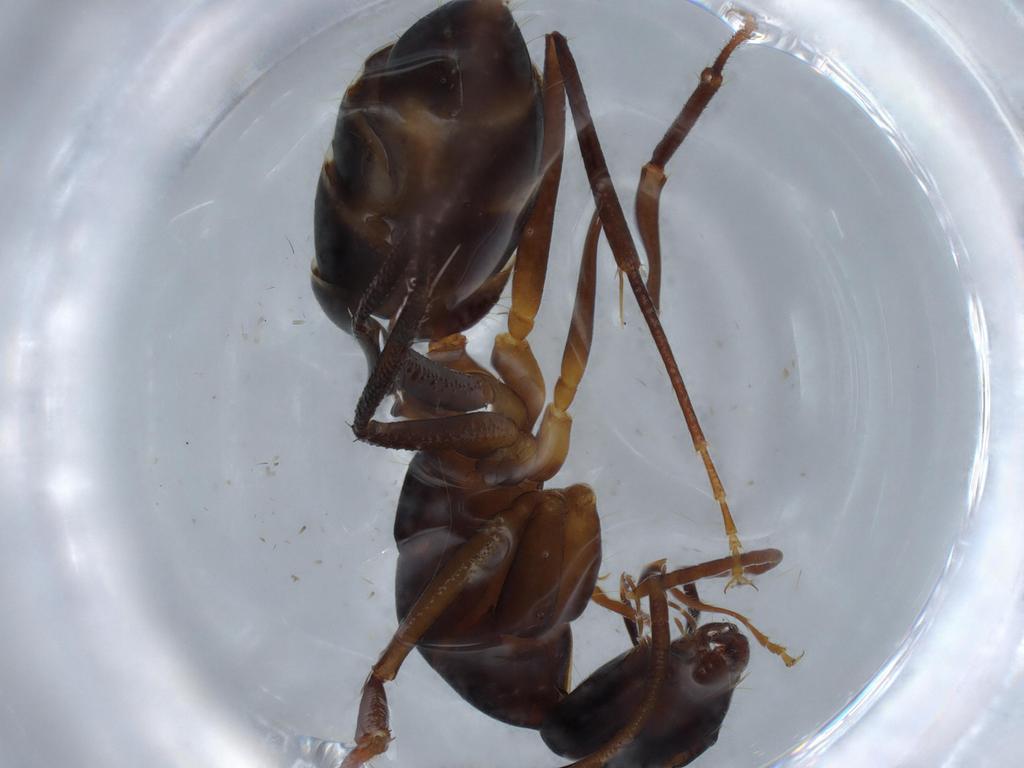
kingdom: Animalia
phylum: Arthropoda
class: Insecta
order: Hymenoptera
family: Formicidae
